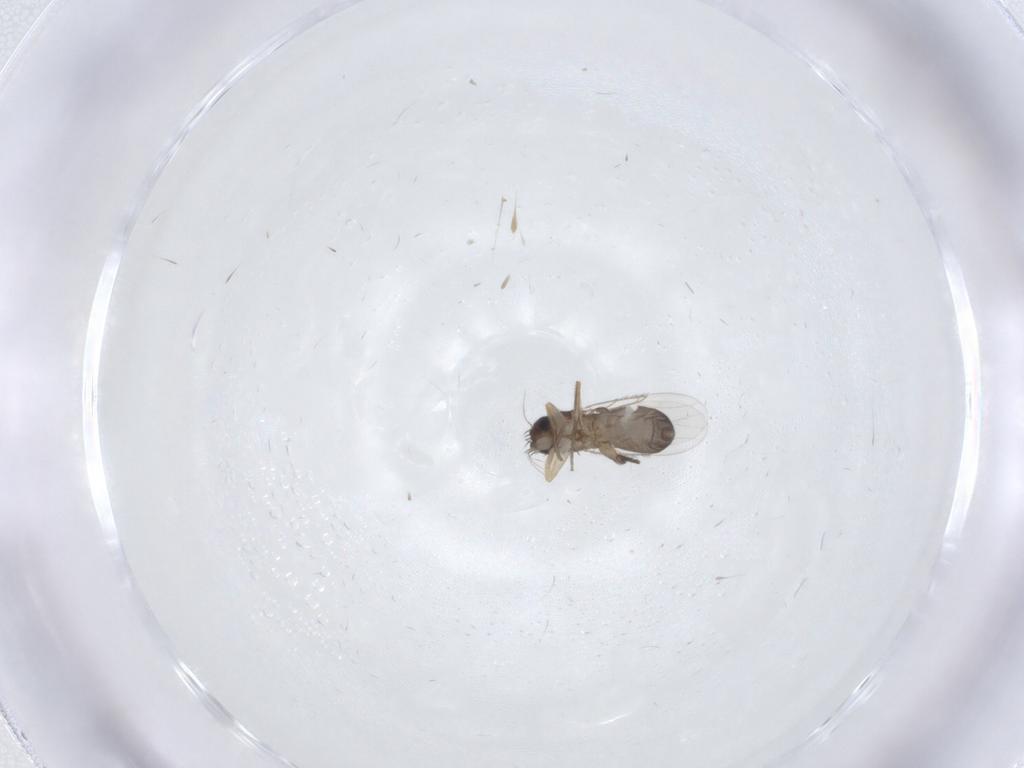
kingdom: Animalia
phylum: Arthropoda
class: Insecta
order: Diptera
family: Phoridae
